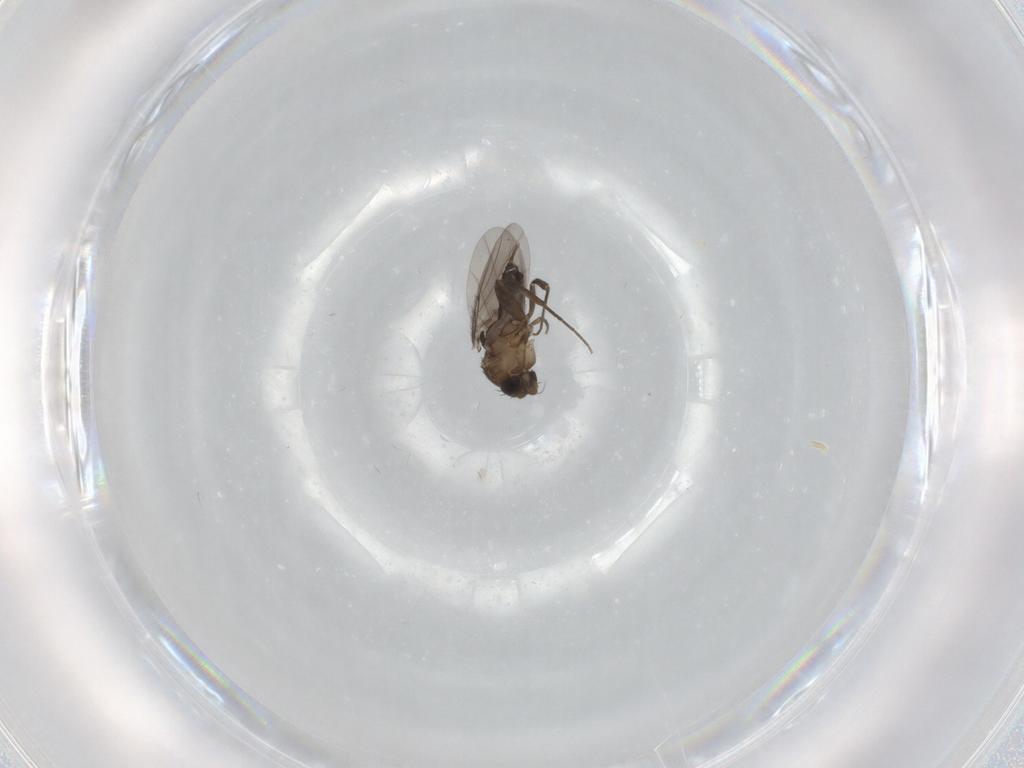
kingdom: Animalia
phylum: Arthropoda
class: Insecta
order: Diptera
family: Phoridae
